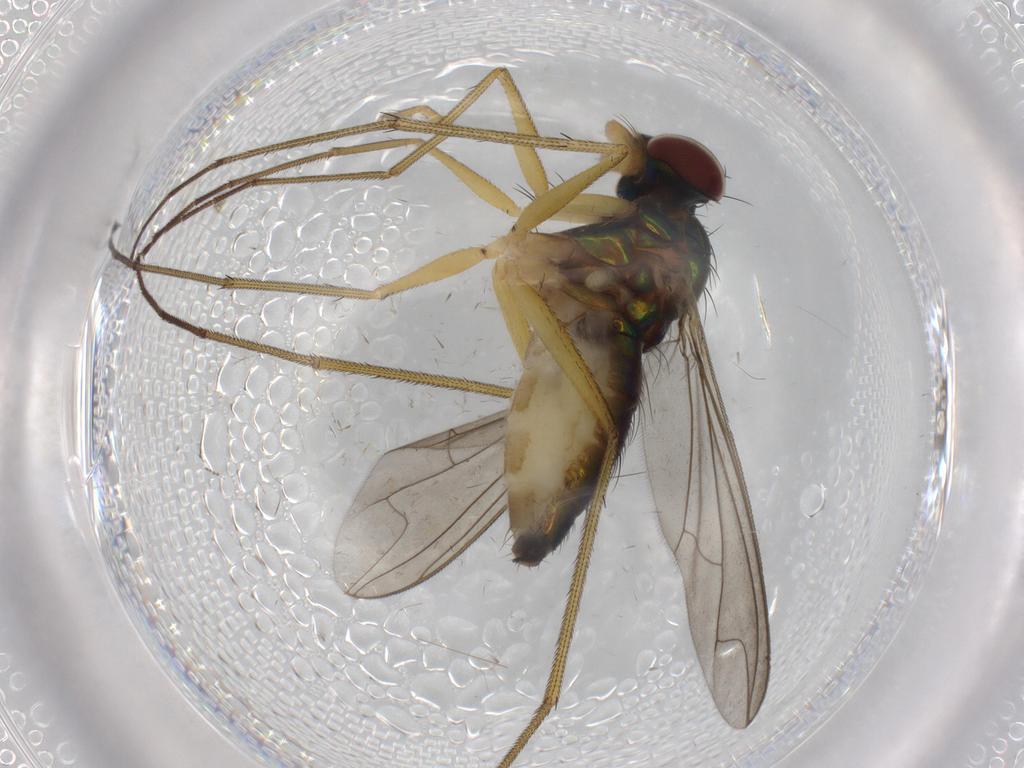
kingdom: Animalia
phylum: Arthropoda
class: Insecta
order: Diptera
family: Dolichopodidae
